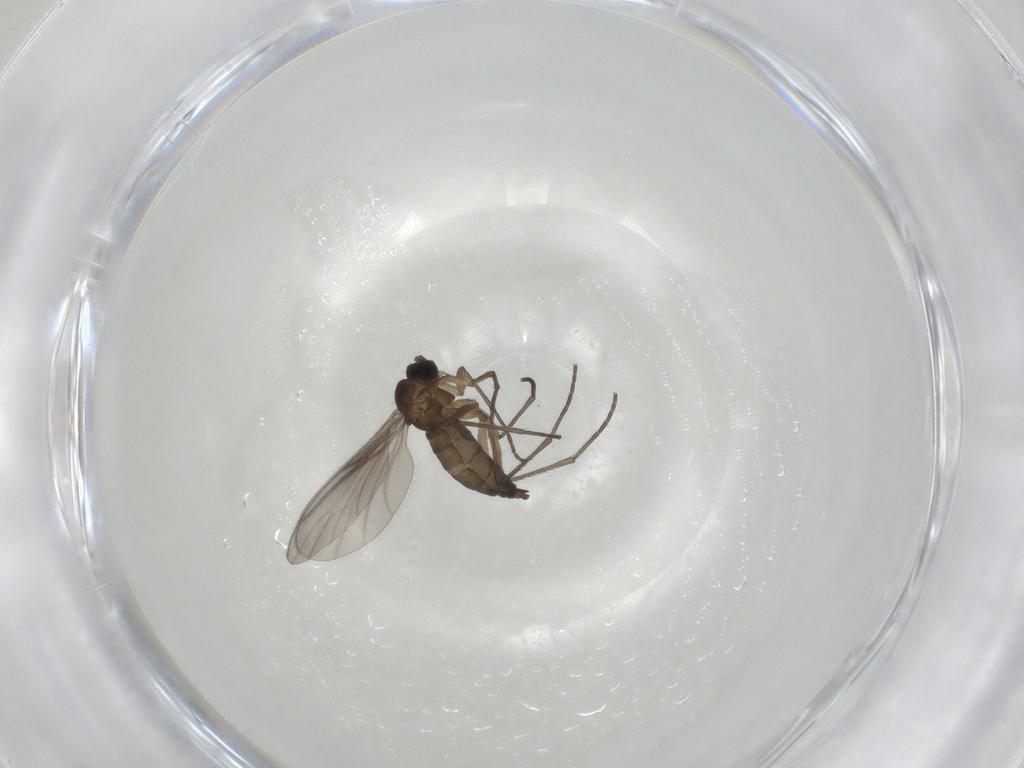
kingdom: Animalia
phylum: Arthropoda
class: Insecta
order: Diptera
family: Sciaridae
